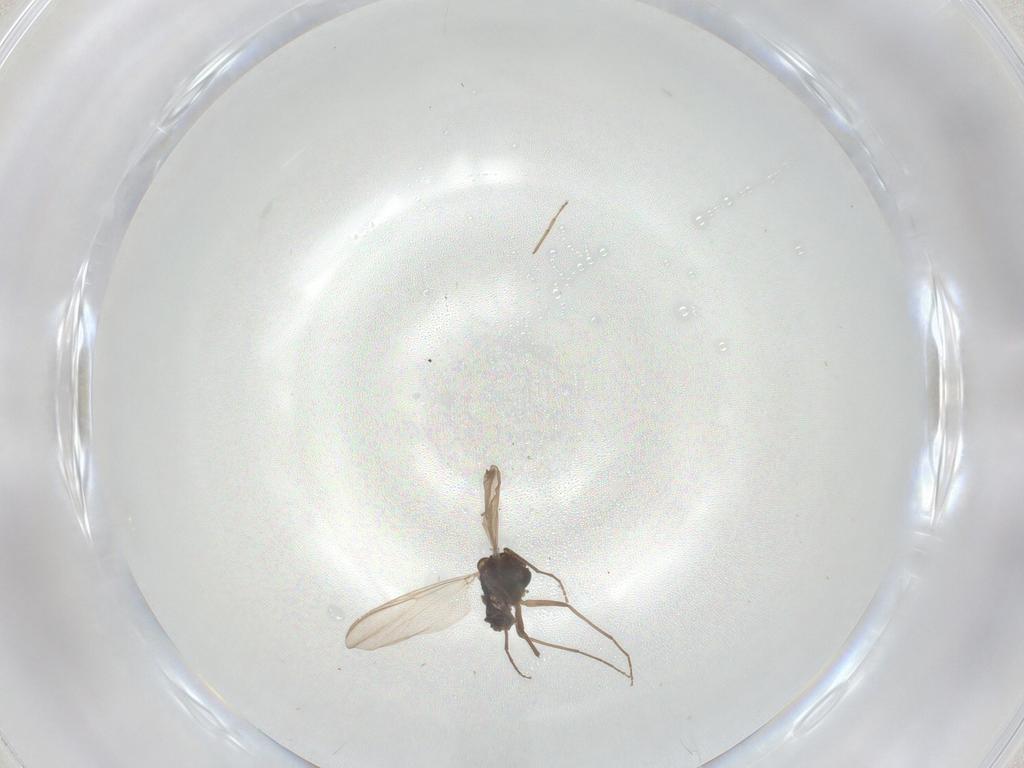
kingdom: Animalia
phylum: Arthropoda
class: Insecta
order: Diptera
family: Chironomidae
